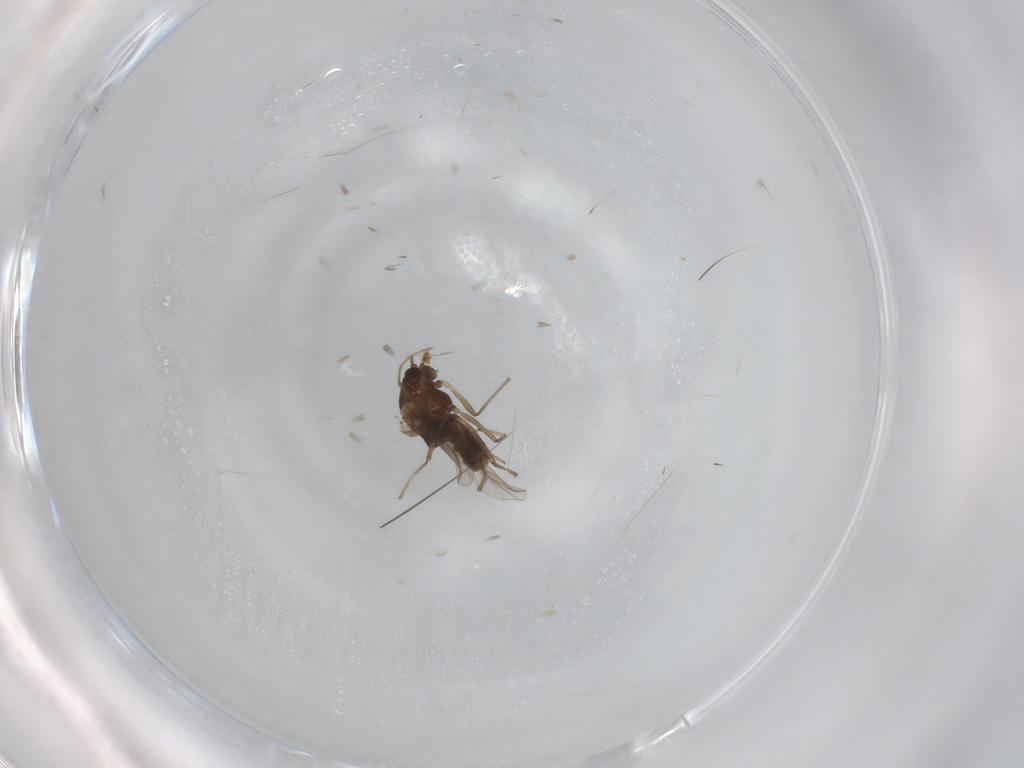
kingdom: Animalia
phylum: Arthropoda
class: Insecta
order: Diptera
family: Chironomidae
